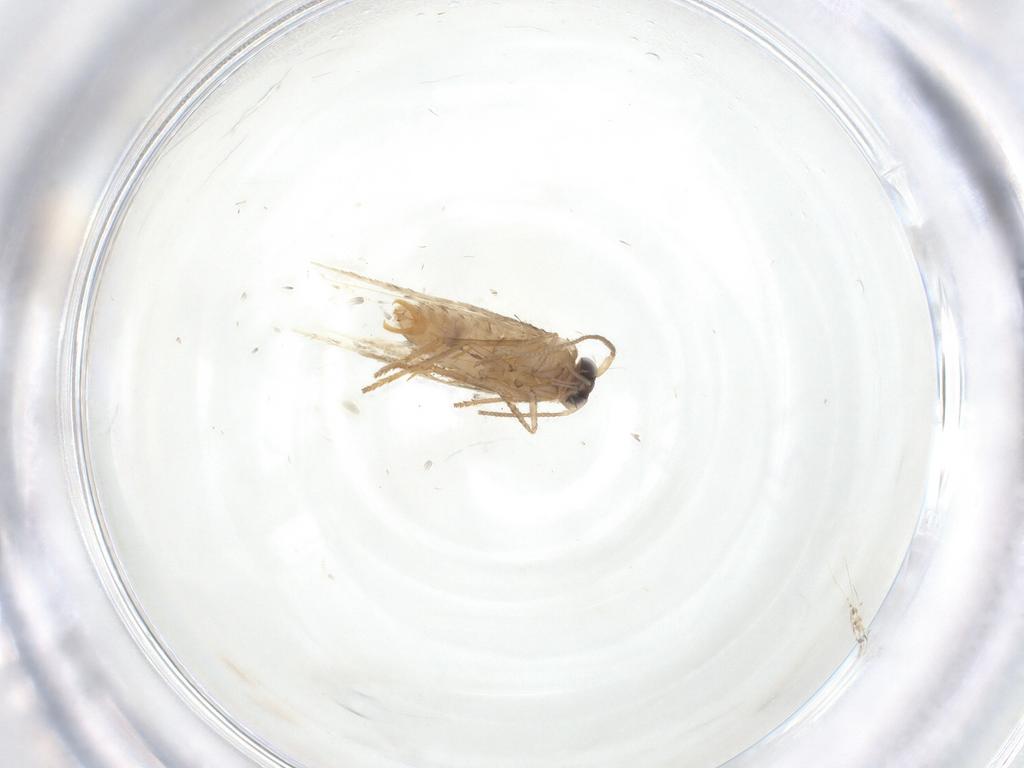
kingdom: Animalia
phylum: Arthropoda
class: Insecta
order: Lepidoptera
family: Nepticulidae
